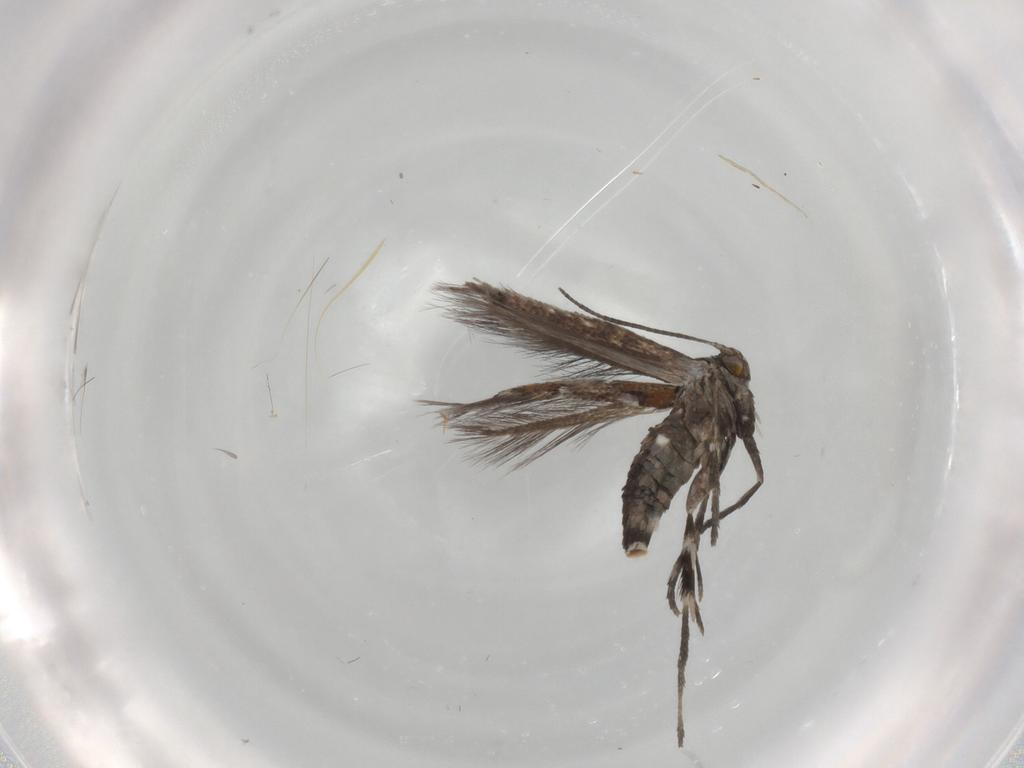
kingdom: Animalia
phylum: Arthropoda
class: Insecta
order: Lepidoptera
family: Gracillariidae
